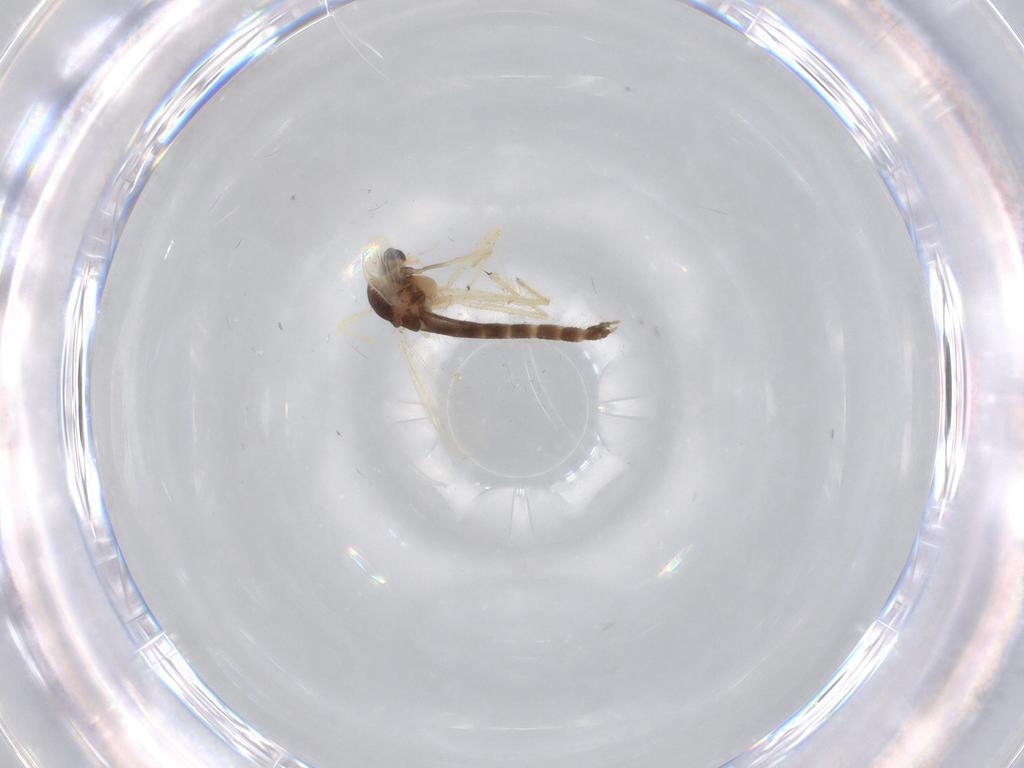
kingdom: Animalia
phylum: Arthropoda
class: Insecta
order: Diptera
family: Chironomidae
